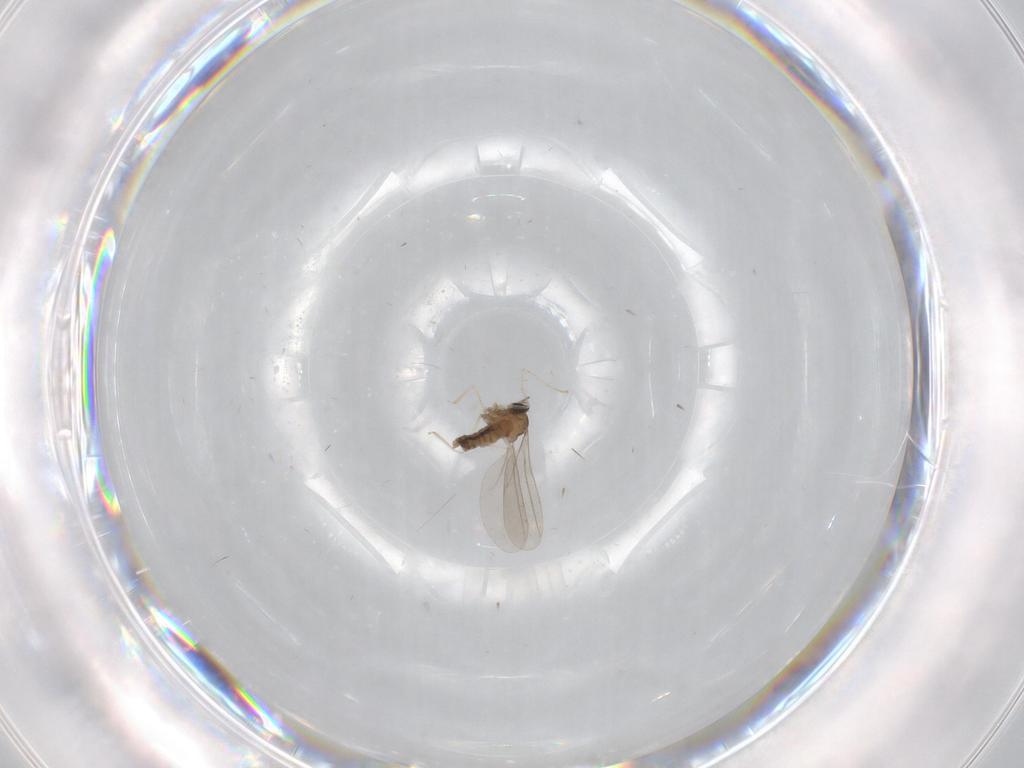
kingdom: Animalia
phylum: Arthropoda
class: Insecta
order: Diptera
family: Cecidomyiidae
